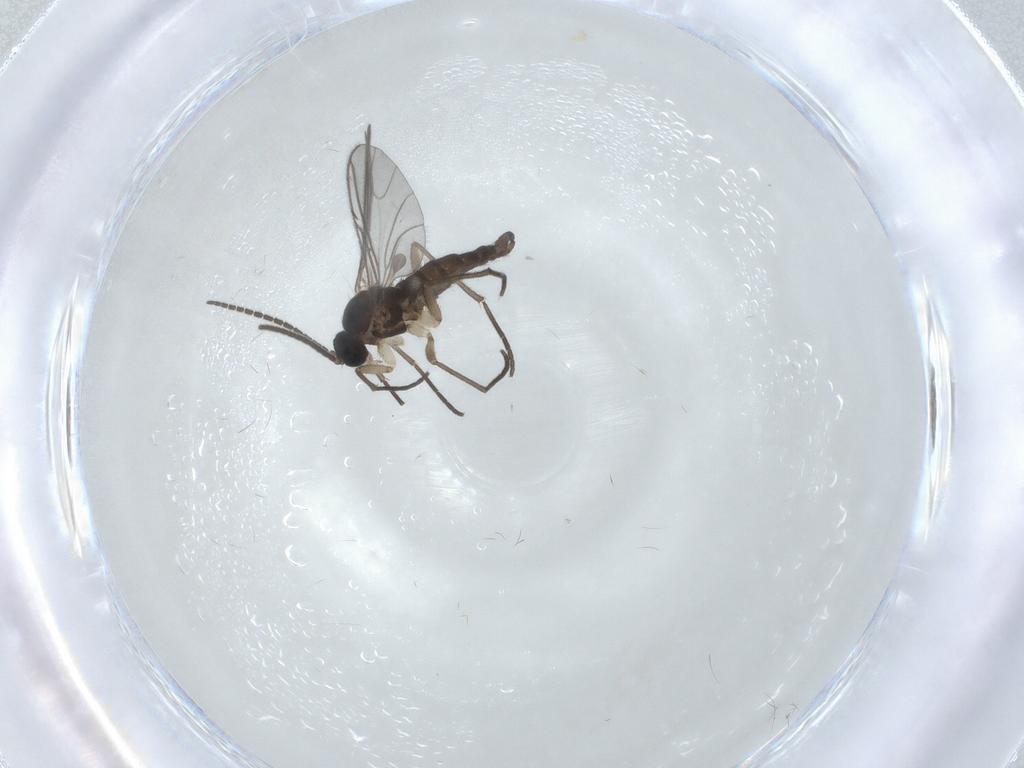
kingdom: Animalia
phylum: Arthropoda
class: Insecta
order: Diptera
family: Sciaridae
